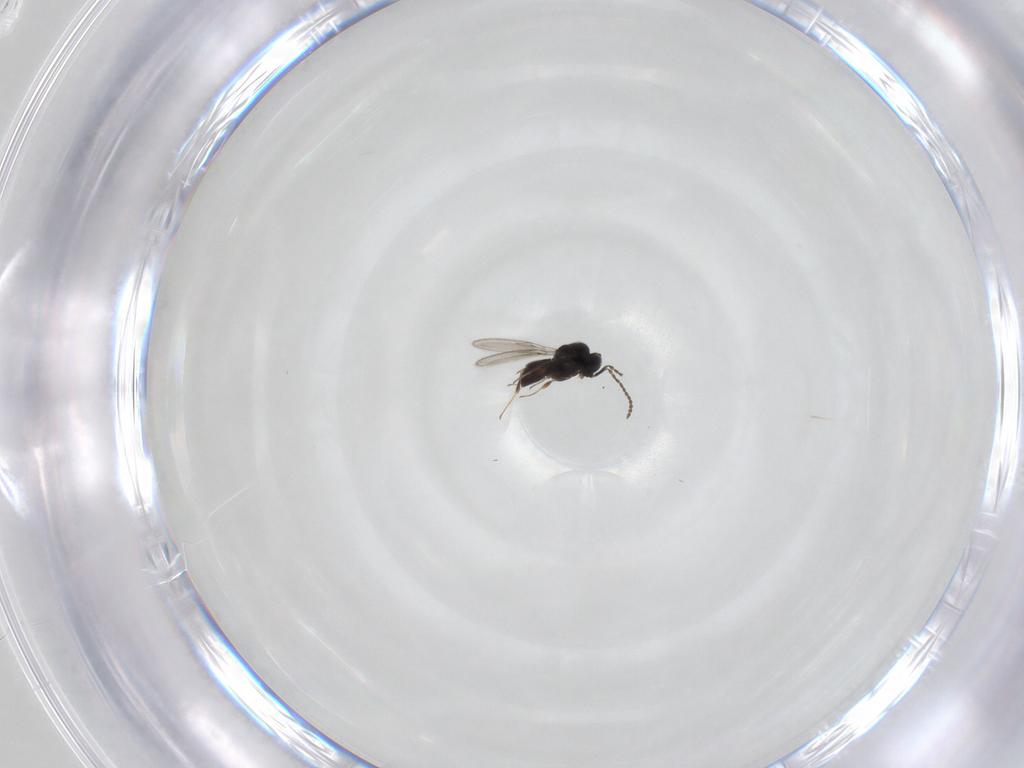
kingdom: Animalia
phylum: Arthropoda
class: Insecta
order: Hymenoptera
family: Scelionidae
